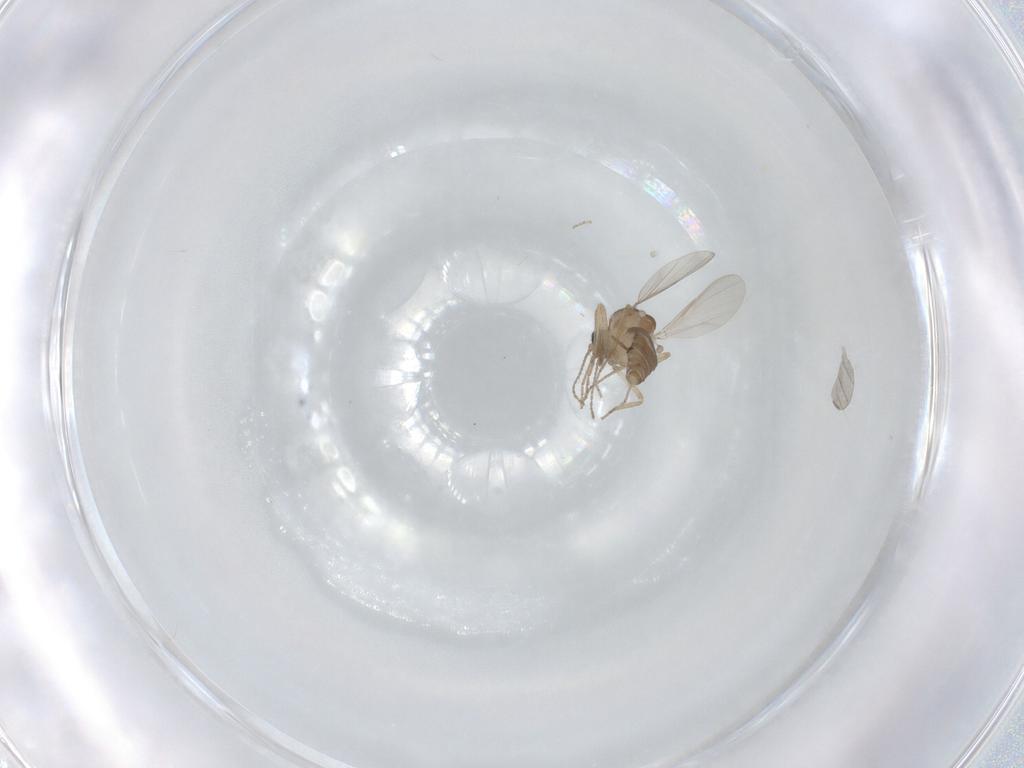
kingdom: Animalia
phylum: Arthropoda
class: Insecta
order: Diptera
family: Ceratopogonidae
